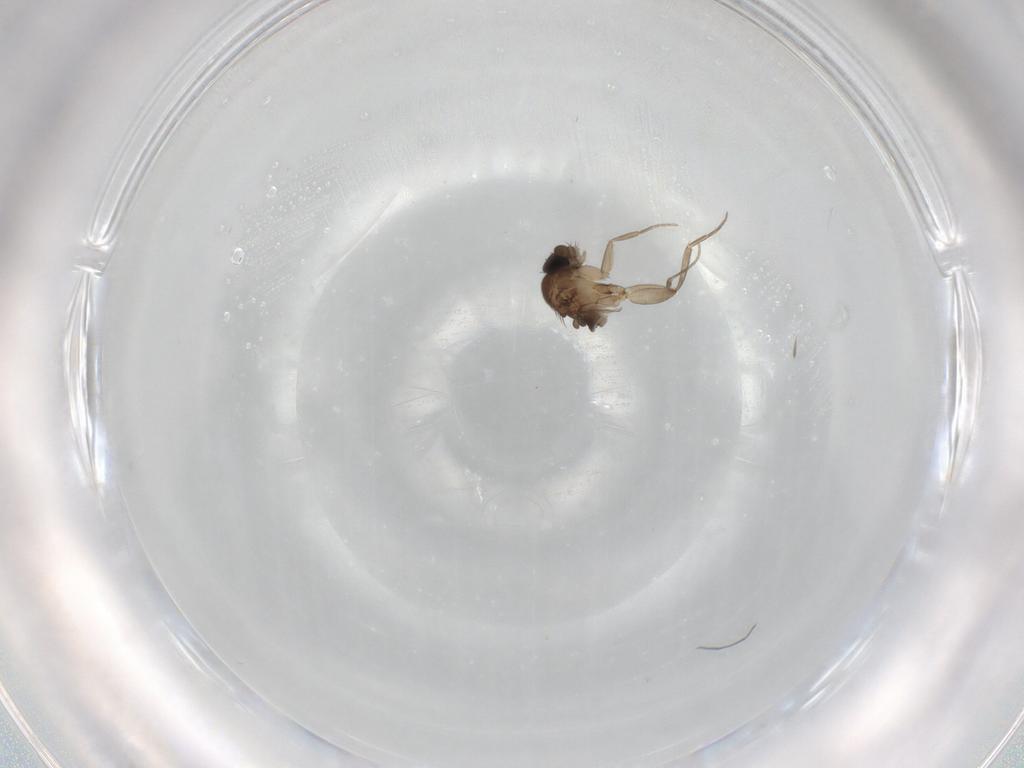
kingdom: Animalia
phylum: Arthropoda
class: Insecta
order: Diptera
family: Phoridae
